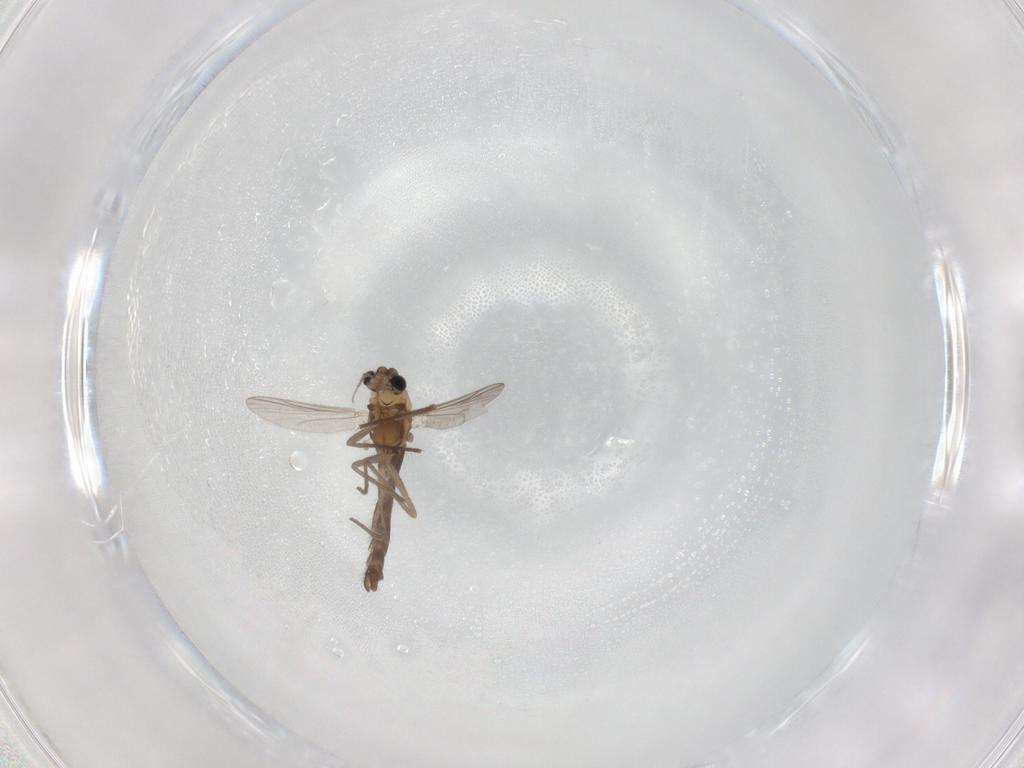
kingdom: Animalia
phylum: Arthropoda
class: Insecta
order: Diptera
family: Chironomidae
